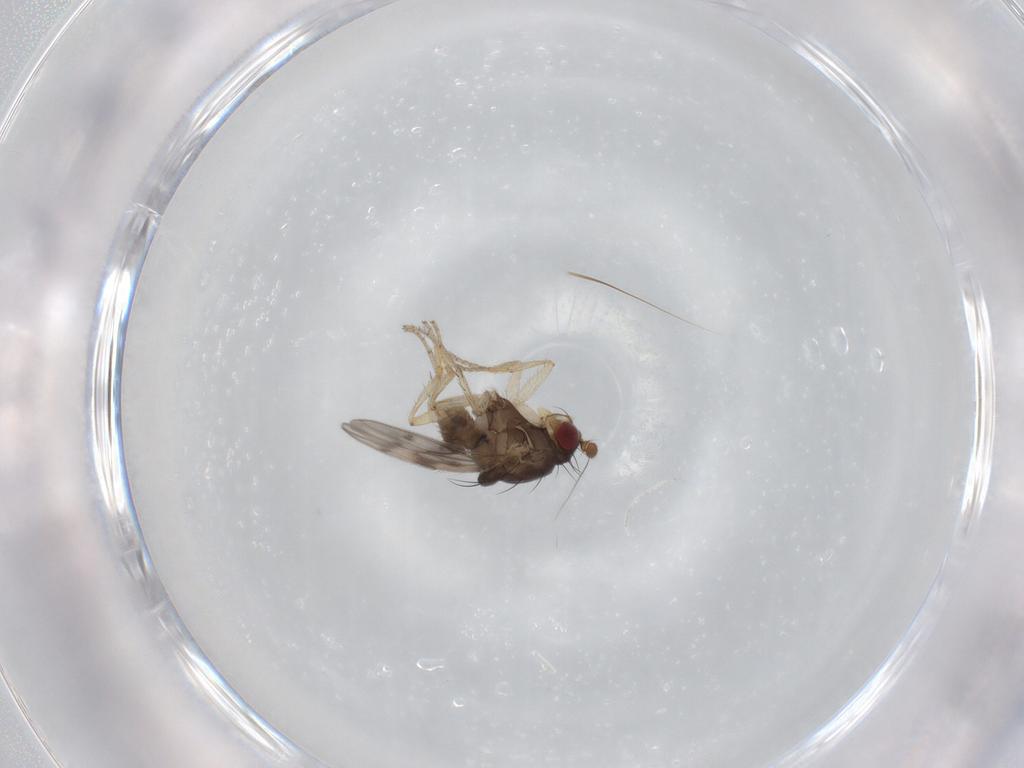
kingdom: Animalia
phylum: Arthropoda
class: Insecta
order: Diptera
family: Sphaeroceridae
